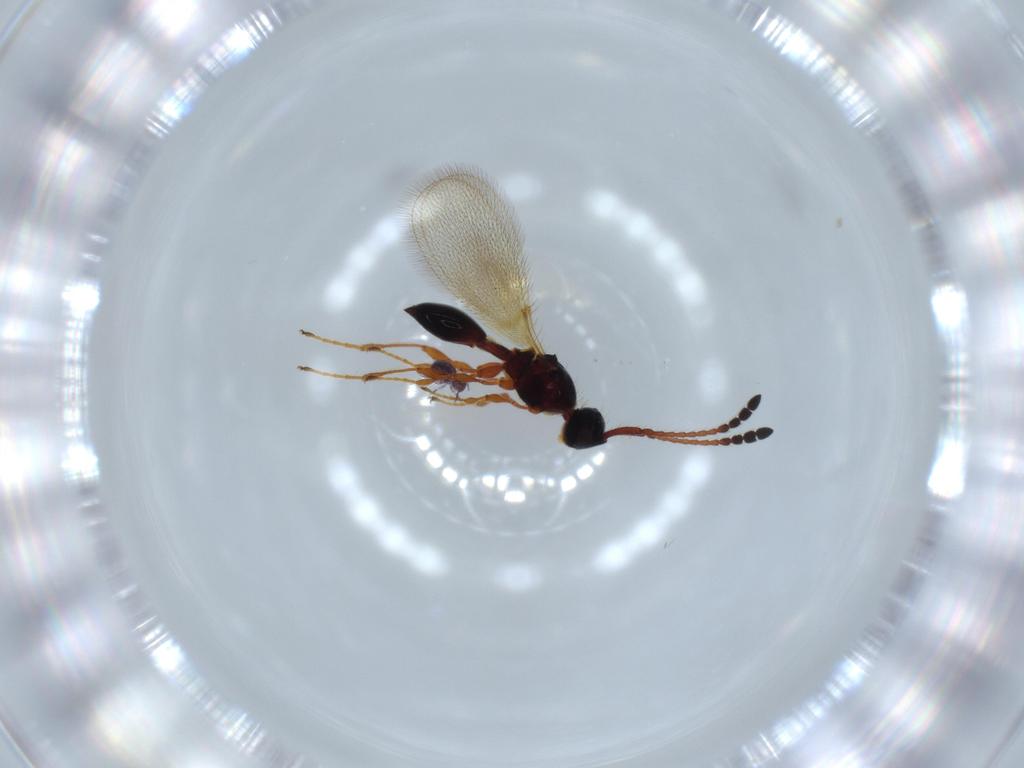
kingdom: Animalia
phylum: Arthropoda
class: Insecta
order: Hymenoptera
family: Diapriidae
